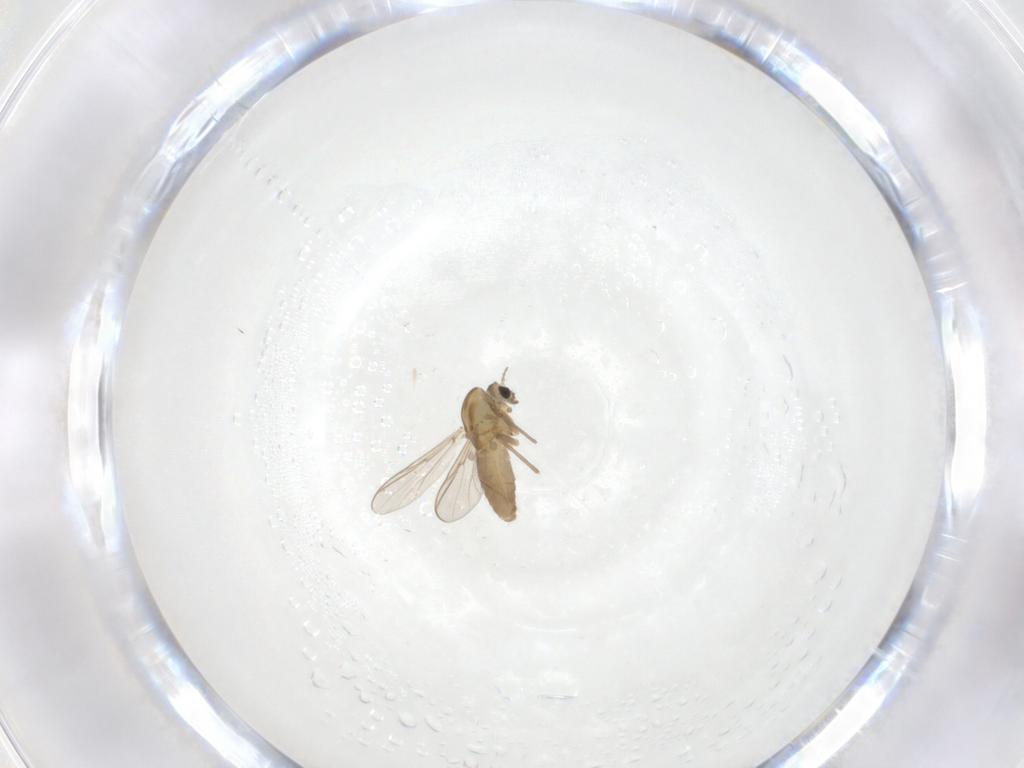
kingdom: Animalia
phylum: Arthropoda
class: Insecta
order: Diptera
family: Chironomidae
